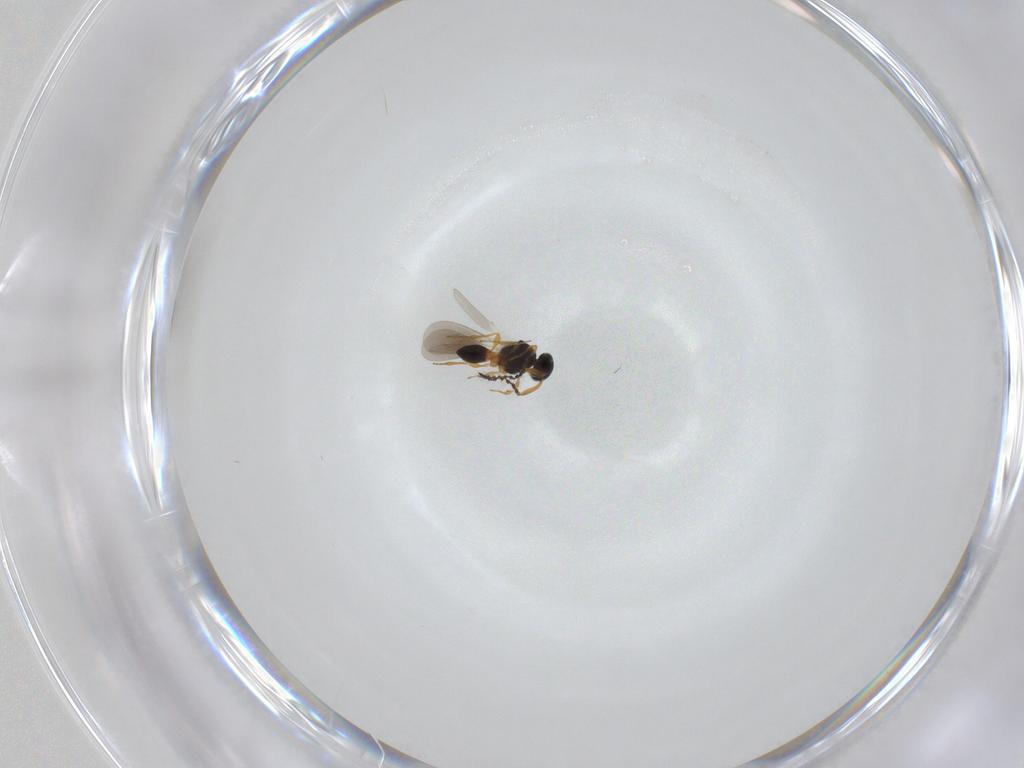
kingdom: Animalia
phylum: Arthropoda
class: Insecta
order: Hymenoptera
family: Platygastridae
